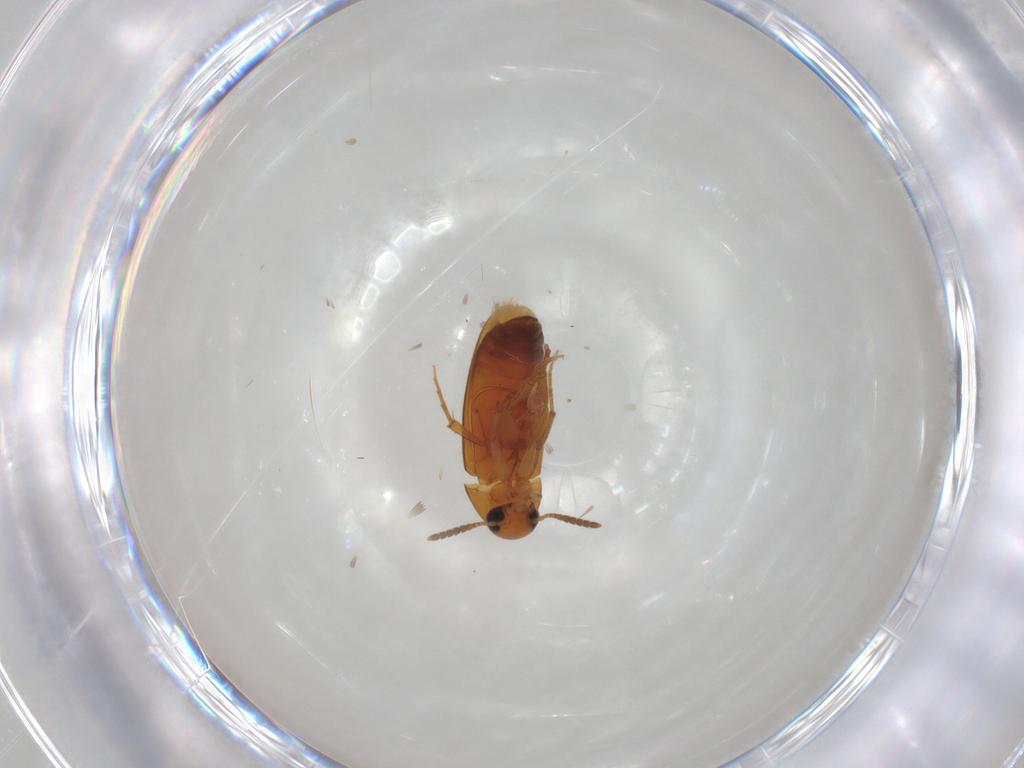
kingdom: Animalia
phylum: Arthropoda
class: Insecta
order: Coleoptera
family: Scraptiidae
